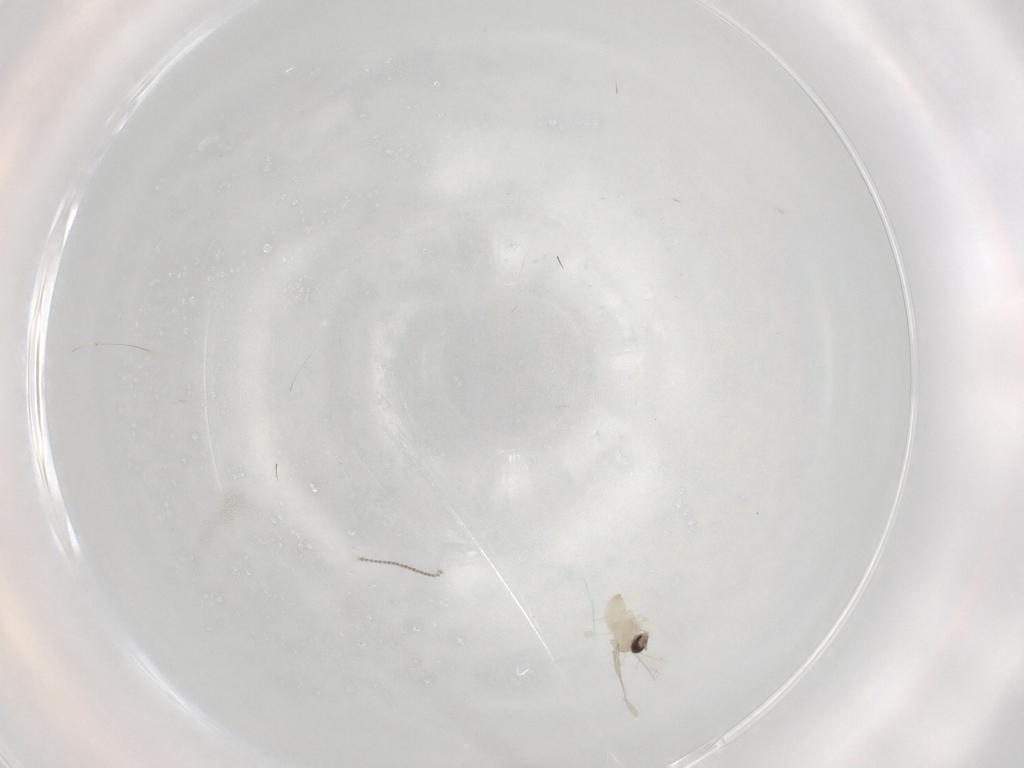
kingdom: Animalia
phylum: Arthropoda
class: Insecta
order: Diptera
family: Cecidomyiidae
